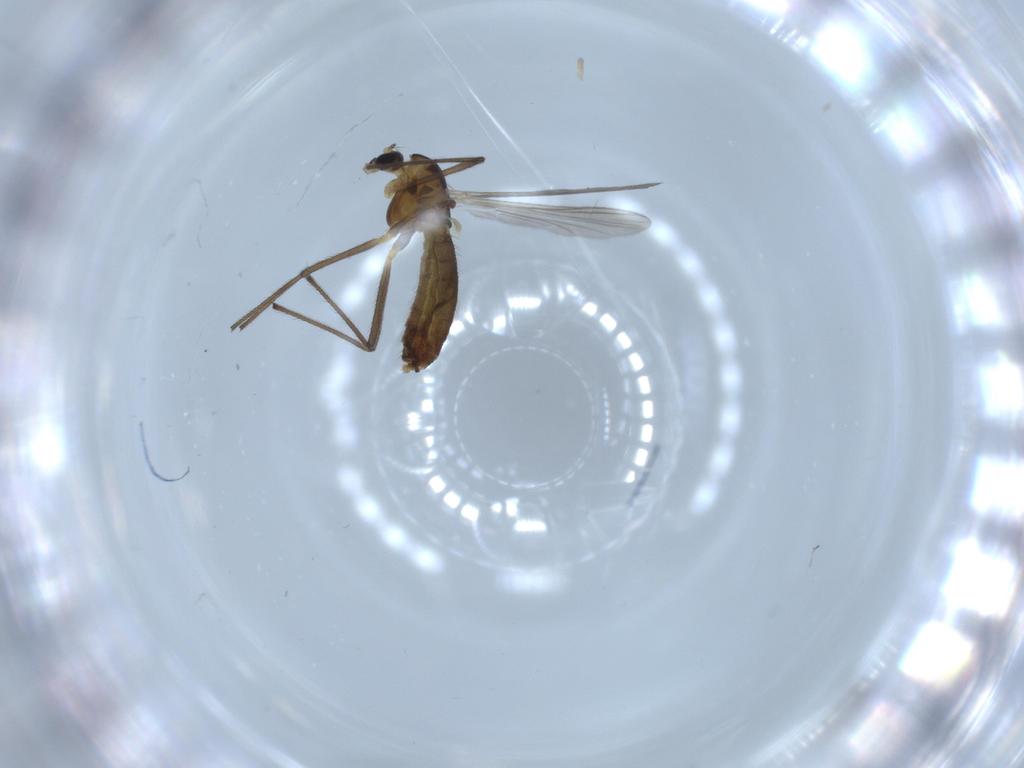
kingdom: Animalia
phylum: Arthropoda
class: Insecta
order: Diptera
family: Chironomidae
